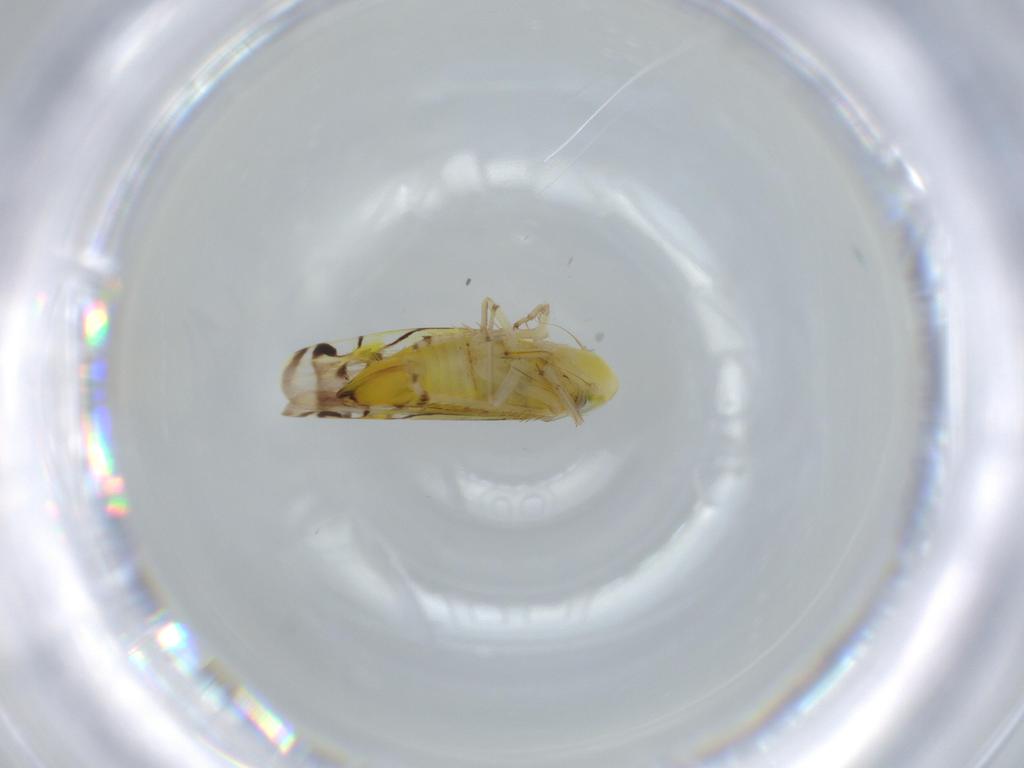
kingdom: Animalia
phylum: Arthropoda
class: Insecta
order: Hemiptera
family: Cicadellidae
